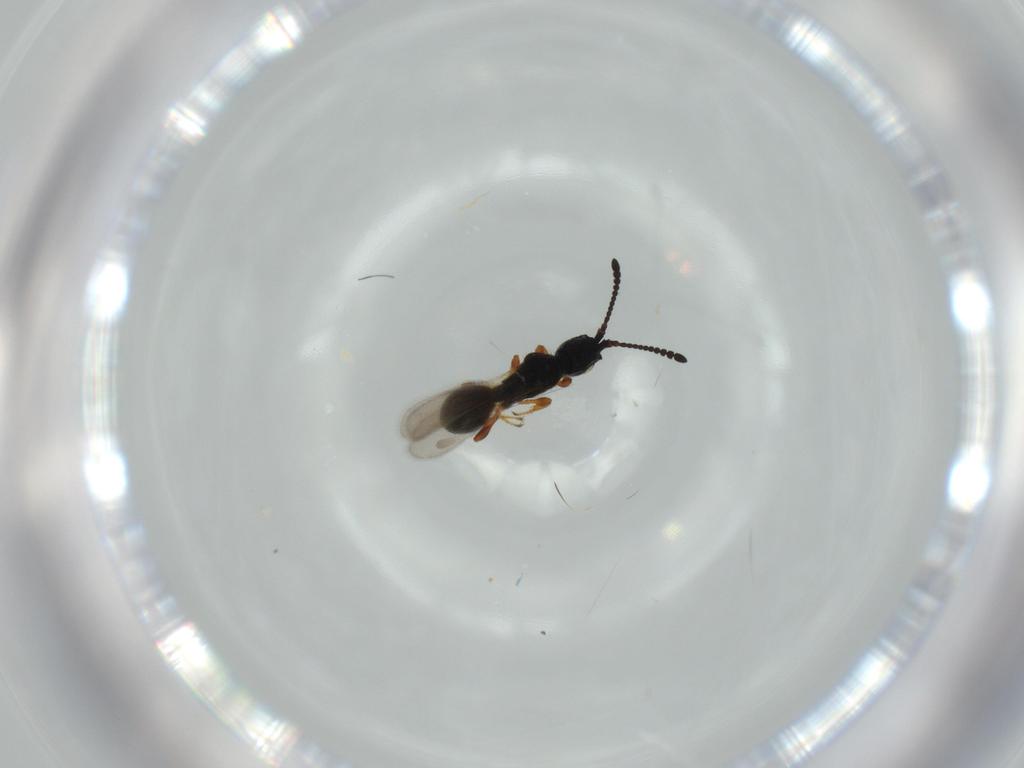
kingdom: Animalia
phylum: Arthropoda
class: Insecta
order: Hymenoptera
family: Diapriidae
